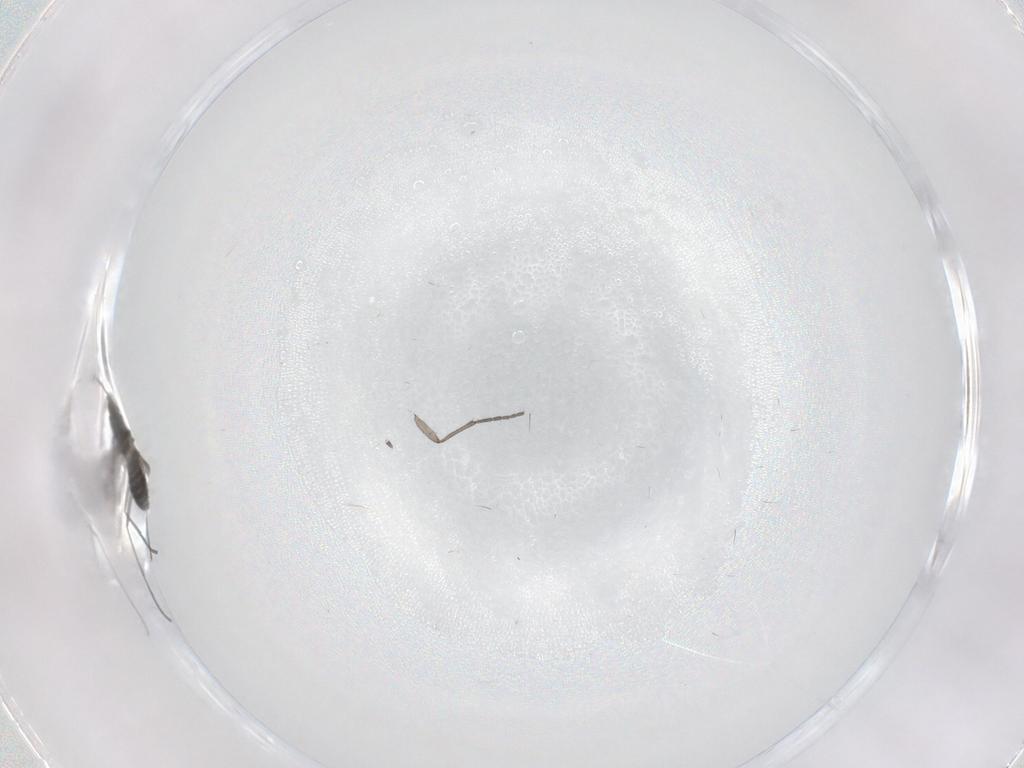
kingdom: Animalia
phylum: Arthropoda
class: Insecta
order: Diptera
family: Sciaridae
